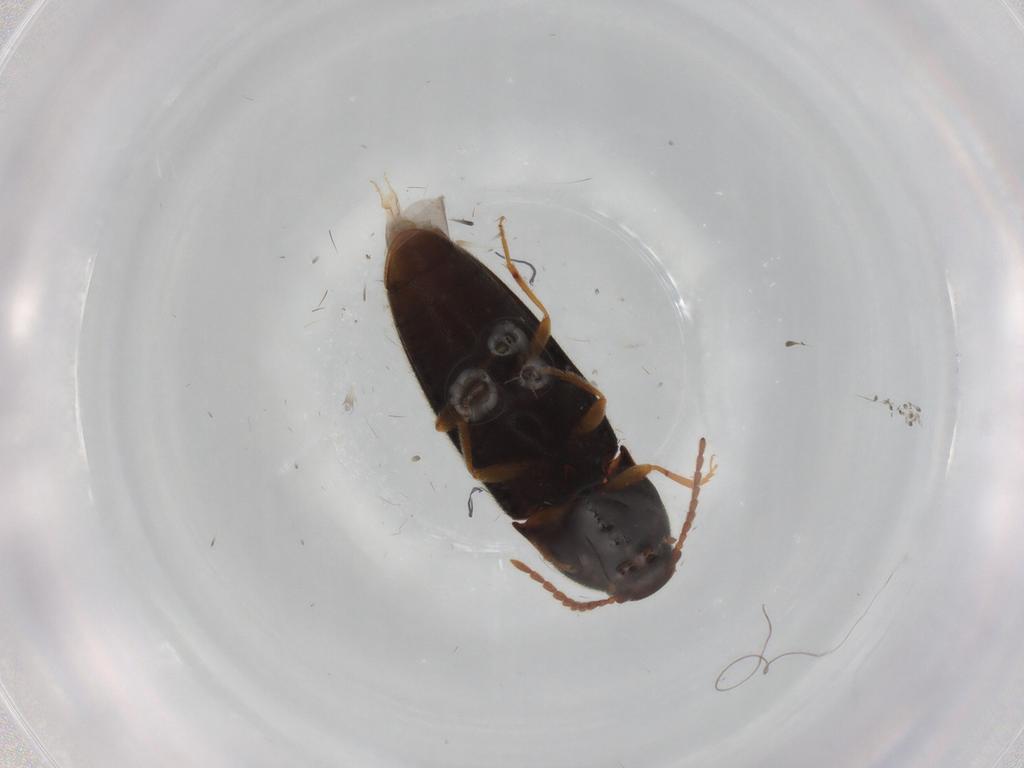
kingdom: Animalia
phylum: Arthropoda
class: Insecta
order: Coleoptera
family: Elateridae
